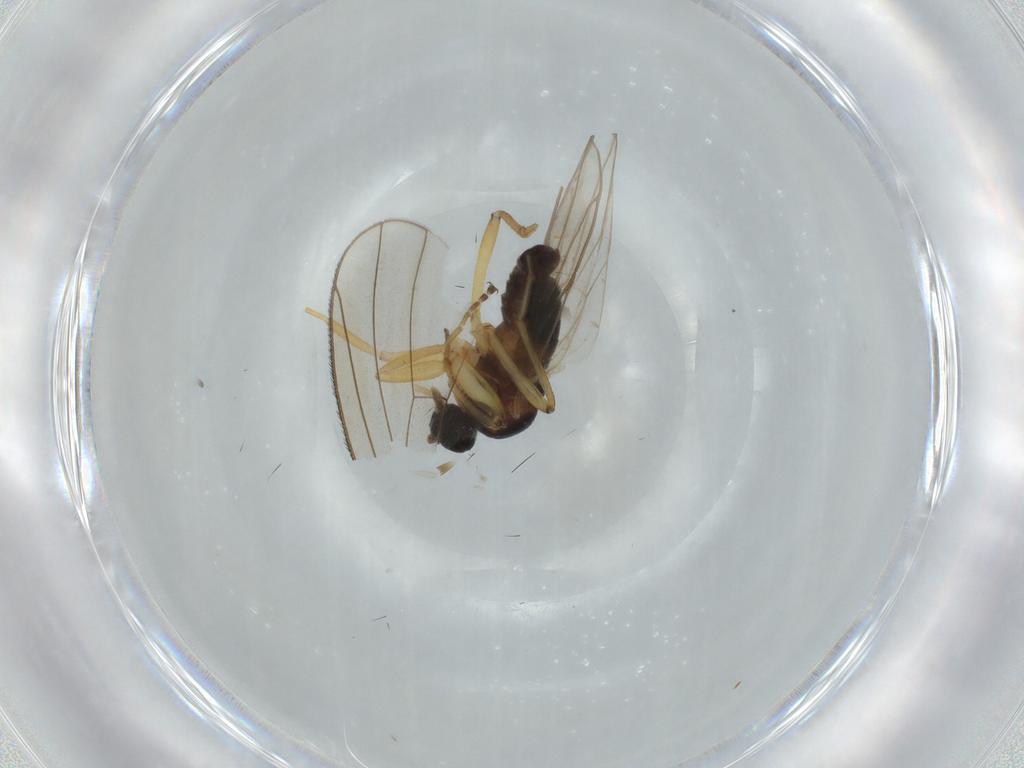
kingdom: Animalia
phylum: Arthropoda
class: Insecta
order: Diptera
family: Hybotidae
